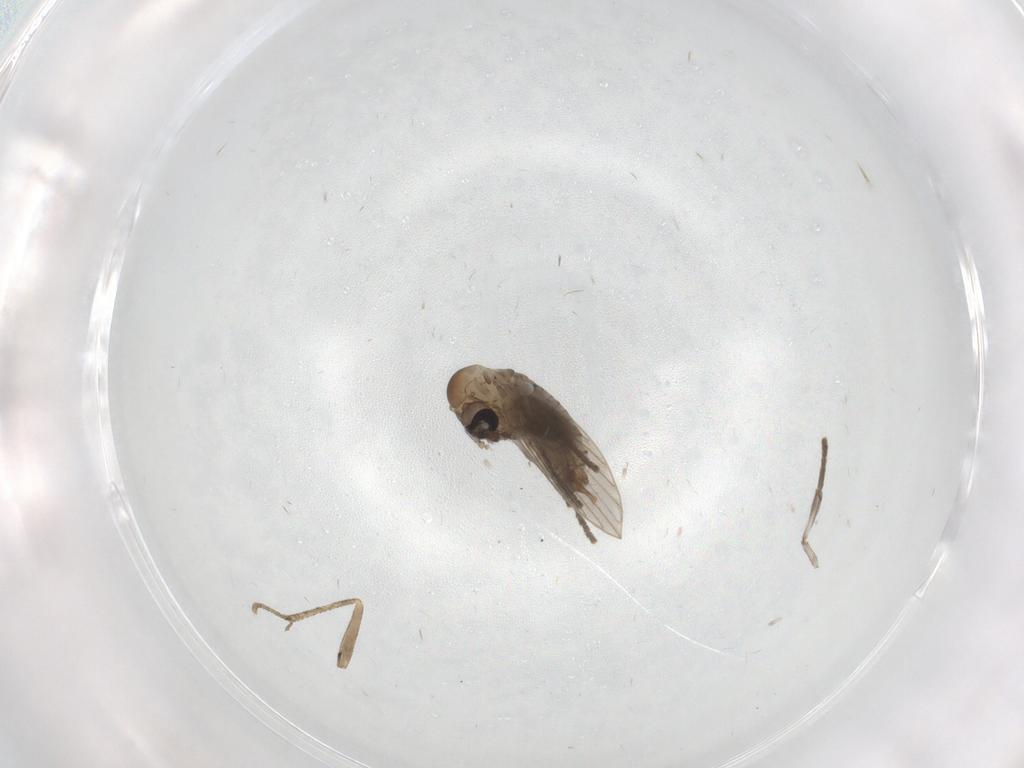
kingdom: Animalia
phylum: Arthropoda
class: Insecta
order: Diptera
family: Psychodidae
